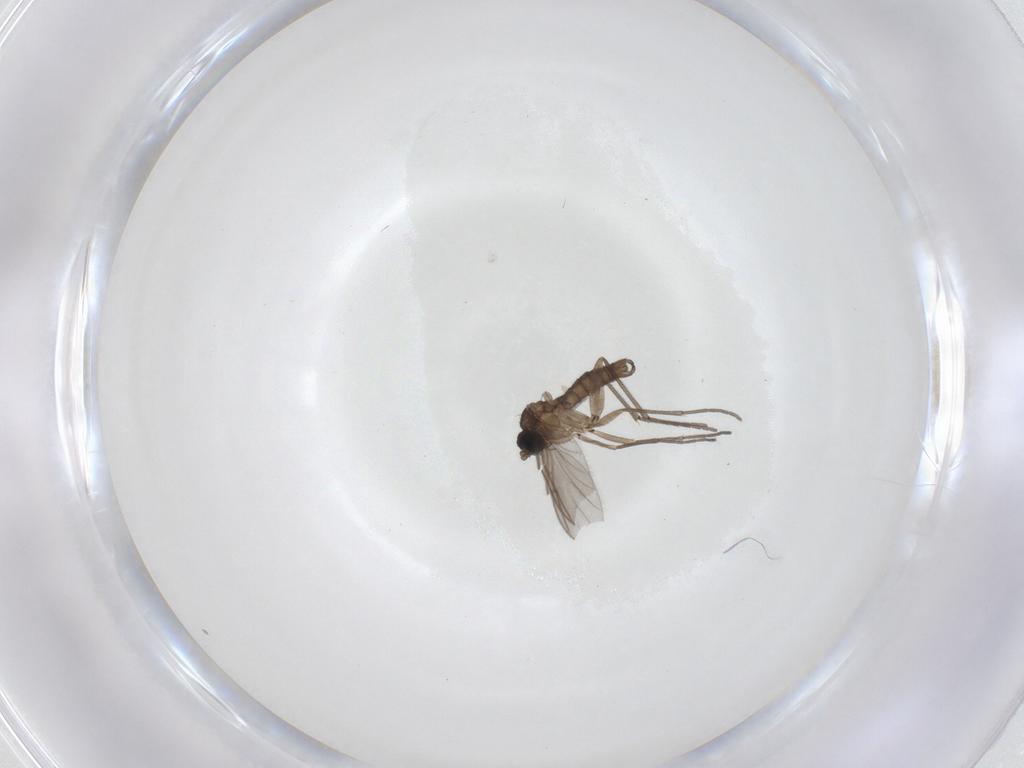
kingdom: Animalia
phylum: Arthropoda
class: Insecta
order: Diptera
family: Sciaridae
